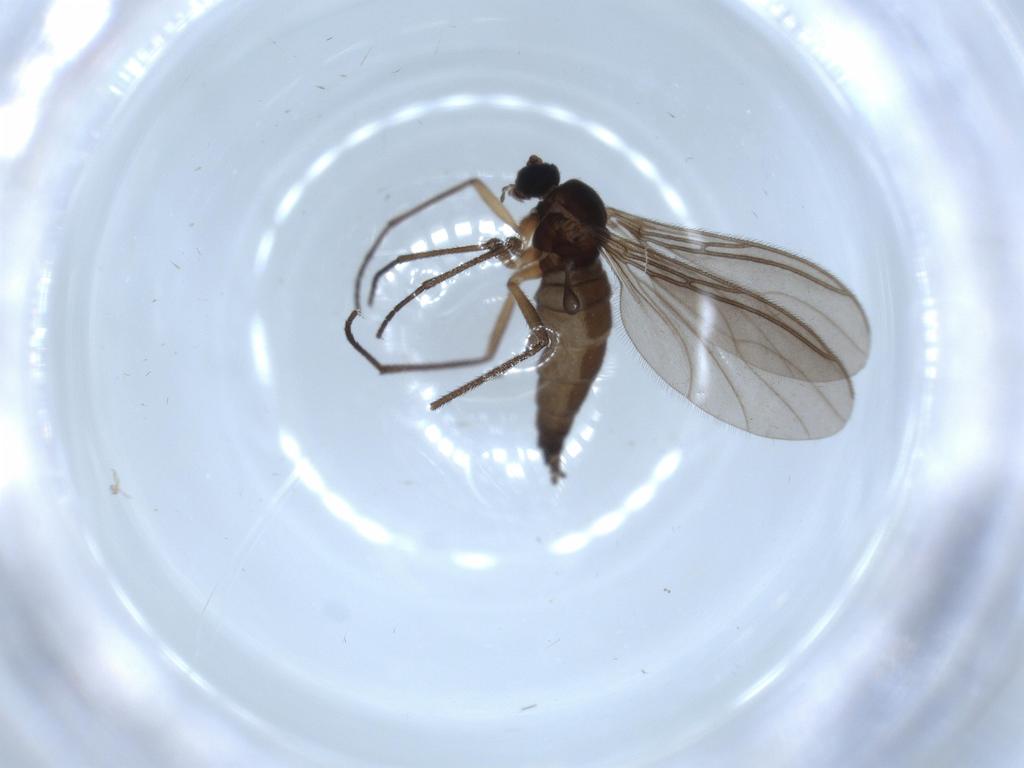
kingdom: Animalia
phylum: Arthropoda
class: Insecta
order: Diptera
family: Sciaridae
